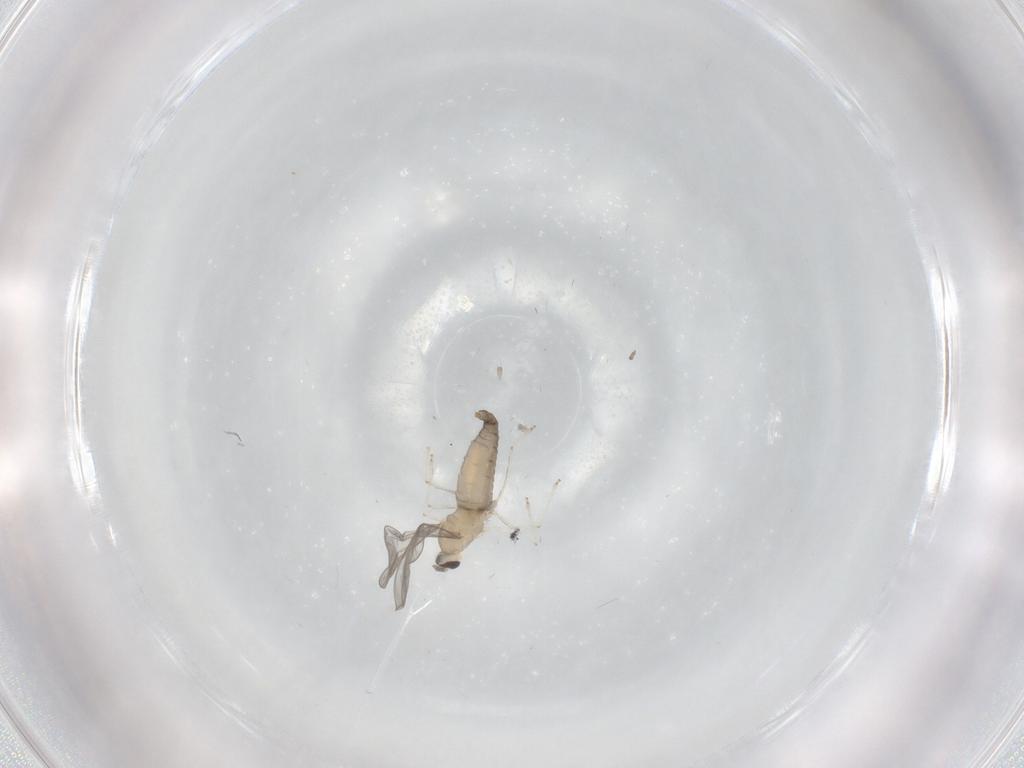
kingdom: Animalia
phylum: Arthropoda
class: Insecta
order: Diptera
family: Cecidomyiidae
